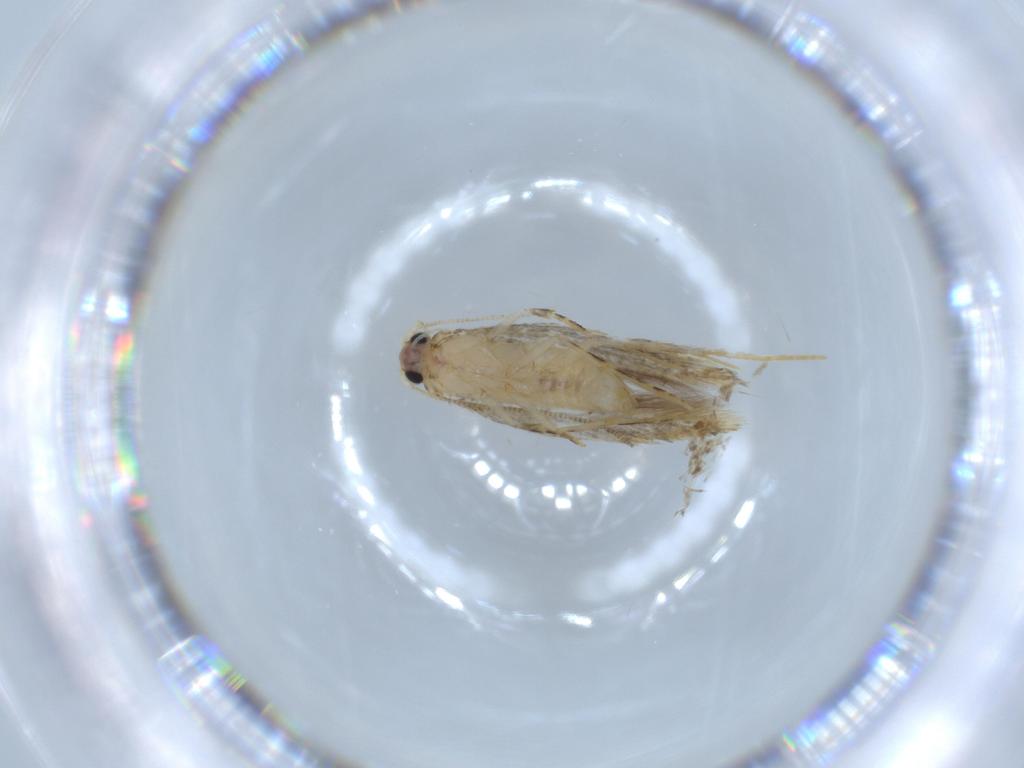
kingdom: Animalia
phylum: Arthropoda
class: Insecta
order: Lepidoptera
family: Tineidae
